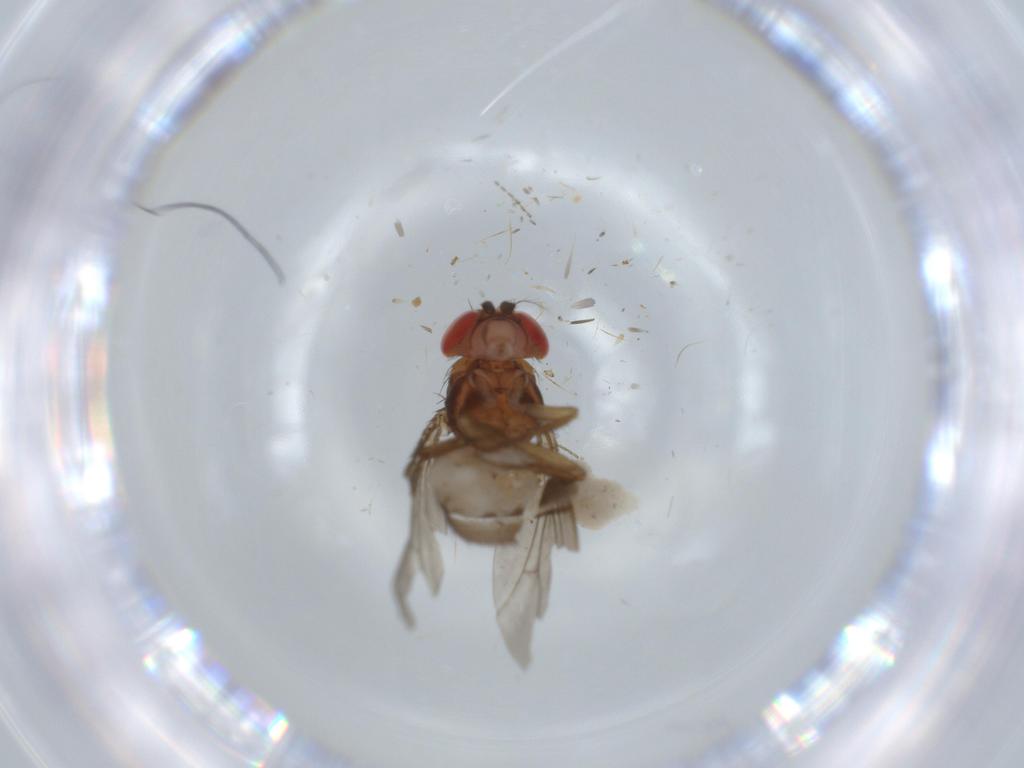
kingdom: Animalia
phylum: Arthropoda
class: Insecta
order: Diptera
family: Drosophilidae
